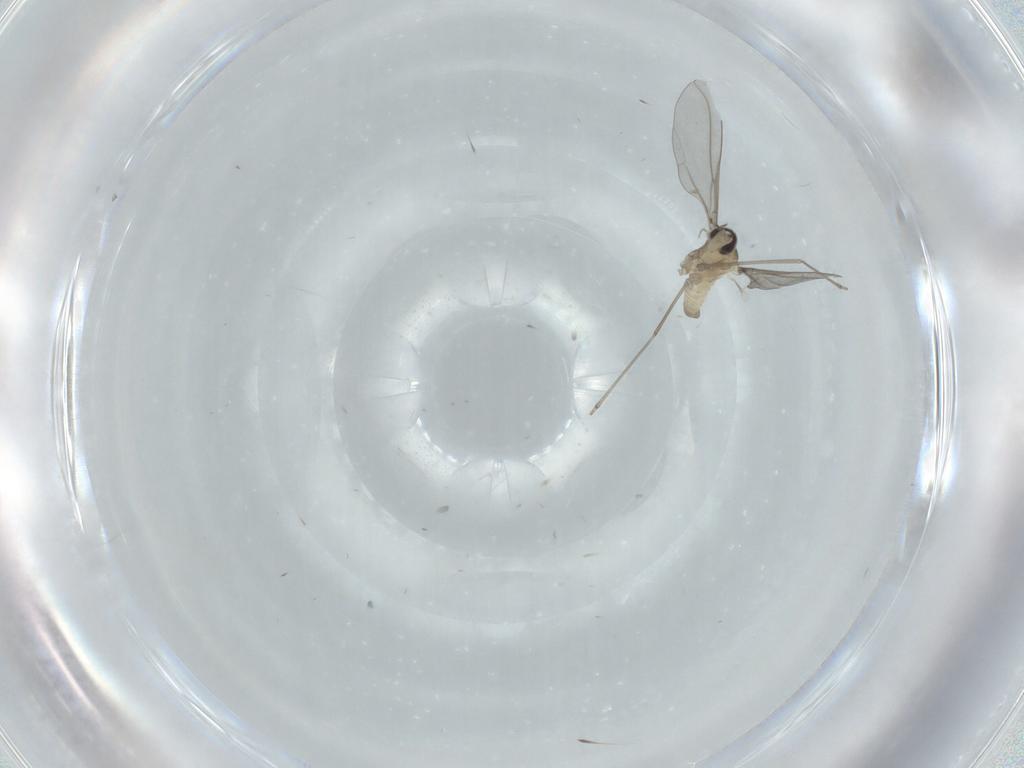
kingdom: Animalia
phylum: Arthropoda
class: Insecta
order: Diptera
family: Cecidomyiidae
